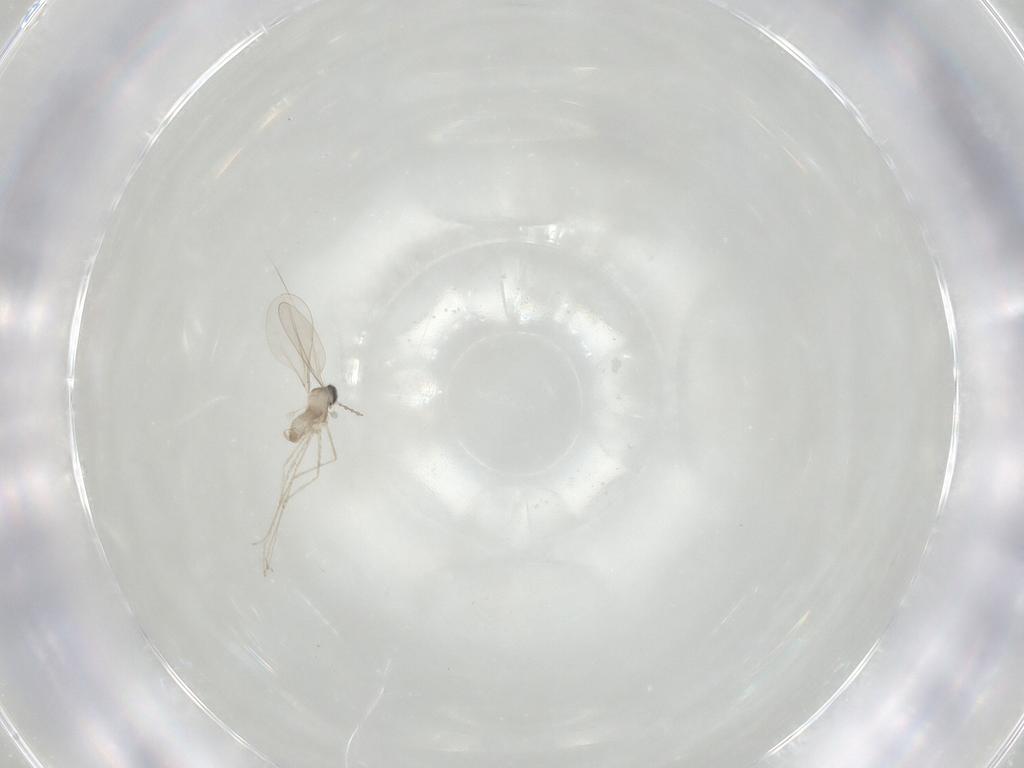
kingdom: Animalia
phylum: Arthropoda
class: Insecta
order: Diptera
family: Cecidomyiidae
